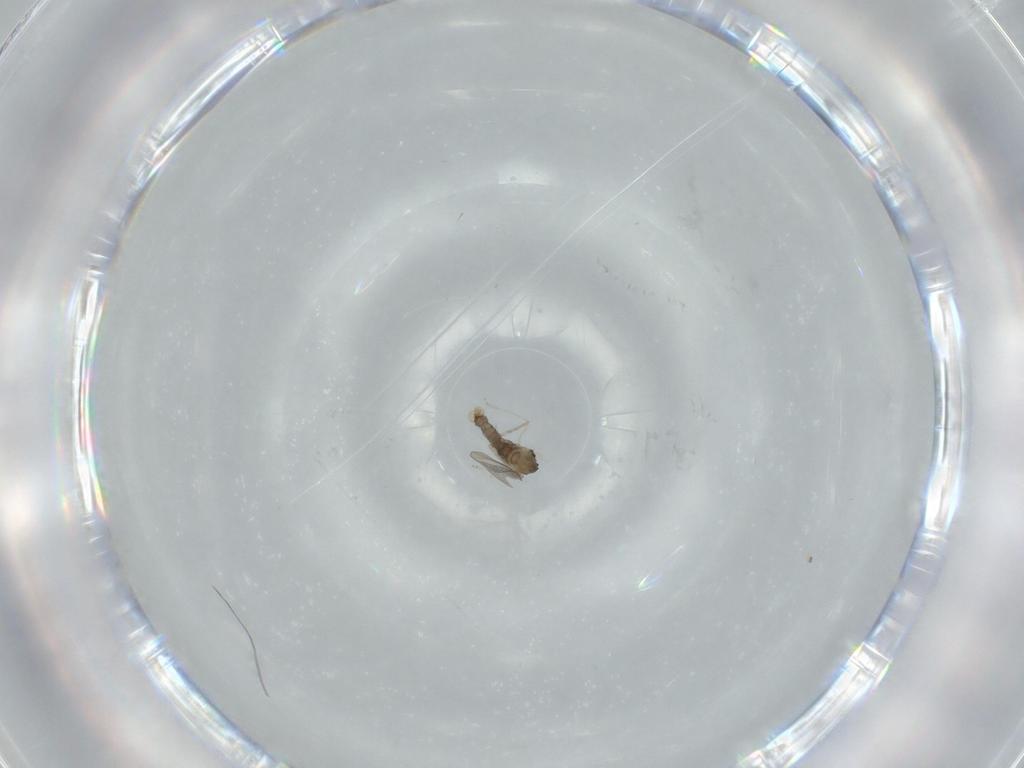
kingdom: Animalia
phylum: Arthropoda
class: Insecta
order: Diptera
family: Cecidomyiidae
